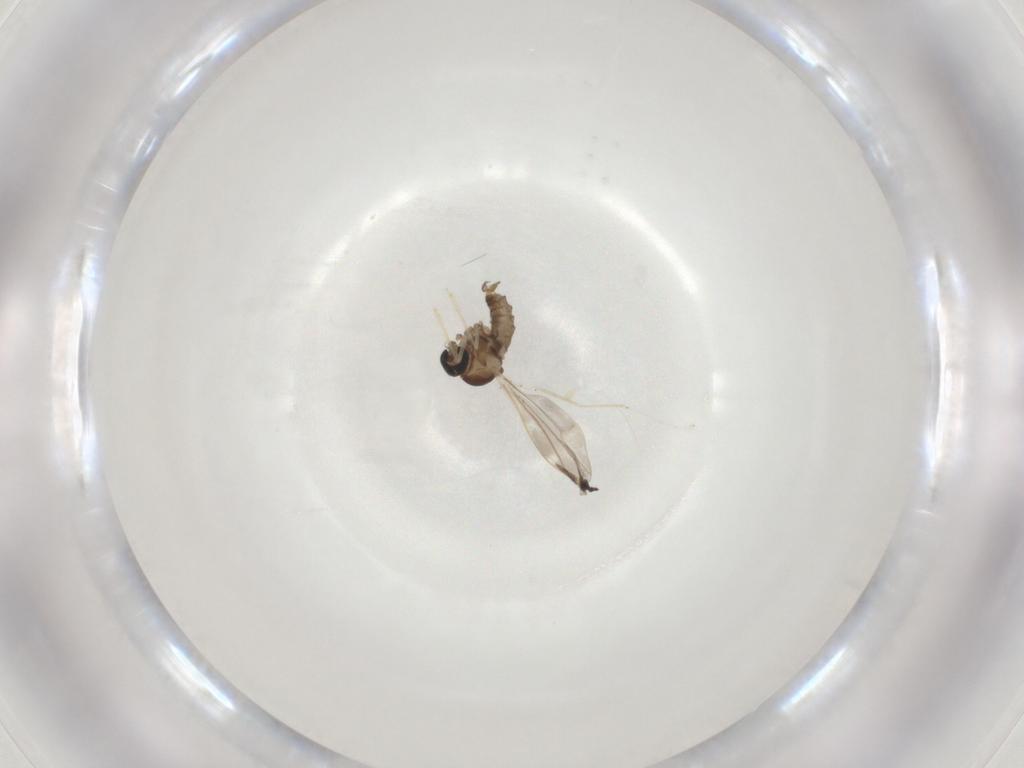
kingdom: Animalia
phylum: Arthropoda
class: Insecta
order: Diptera
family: Cecidomyiidae
